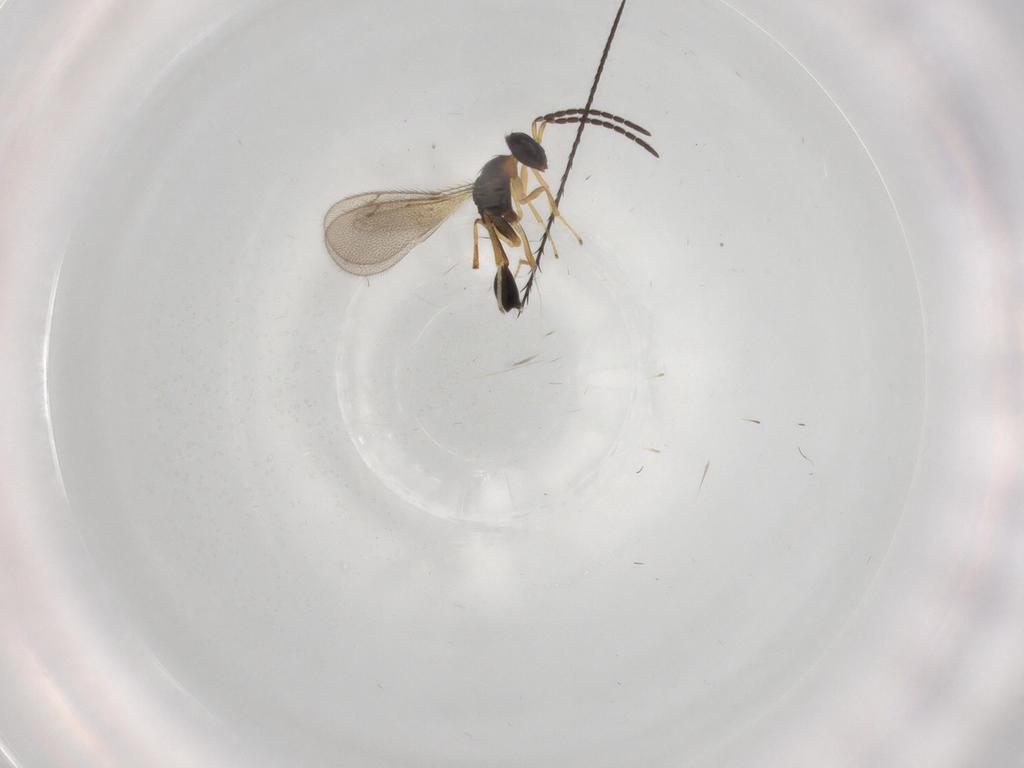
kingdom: Animalia
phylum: Arthropoda
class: Insecta
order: Hymenoptera
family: Diparidae
